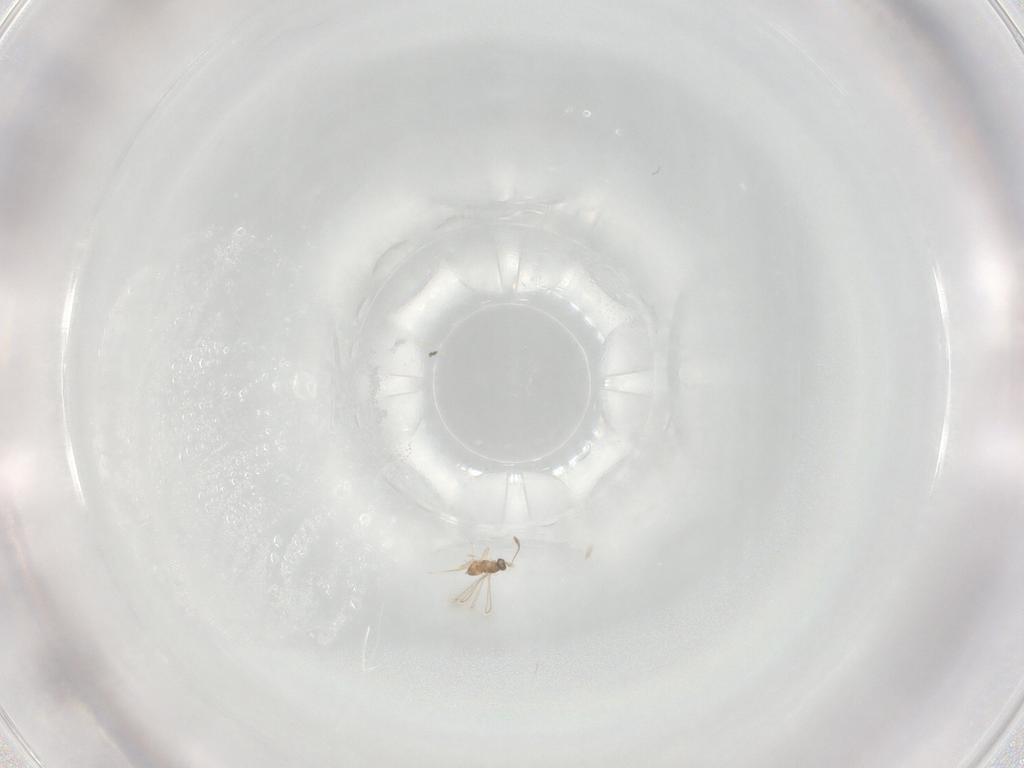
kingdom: Animalia
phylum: Arthropoda
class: Insecta
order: Hymenoptera
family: Mymaridae
